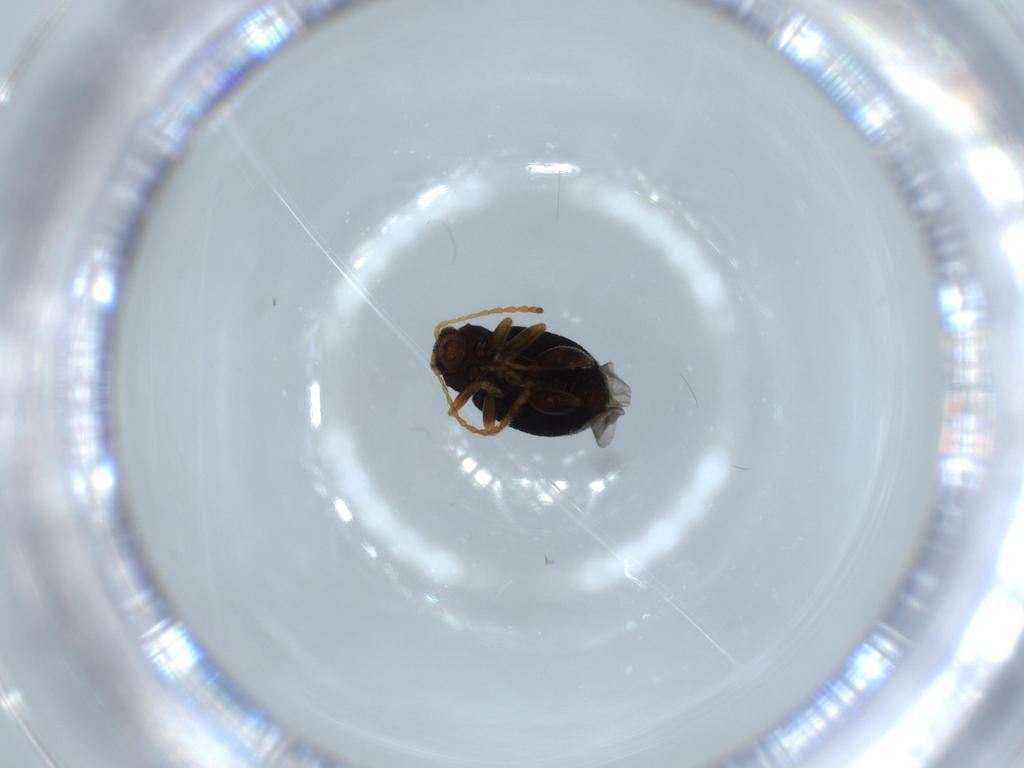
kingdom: Animalia
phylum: Arthropoda
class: Insecta
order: Coleoptera
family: Chrysomelidae
